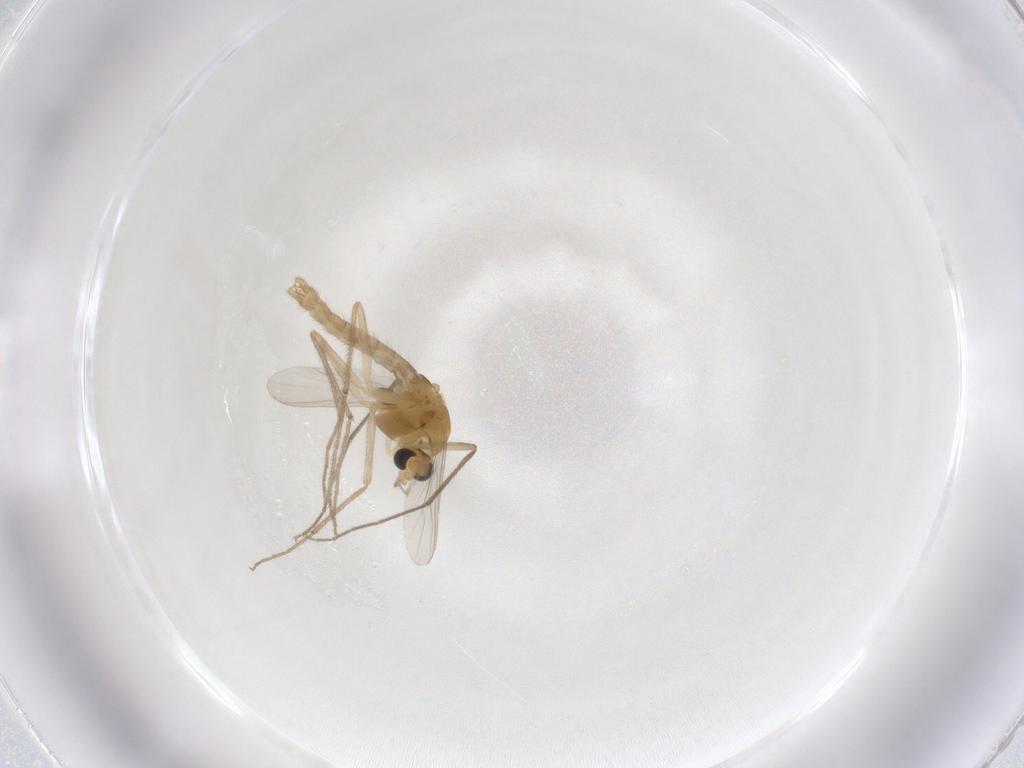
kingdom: Animalia
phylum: Arthropoda
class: Insecta
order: Diptera
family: Chironomidae
